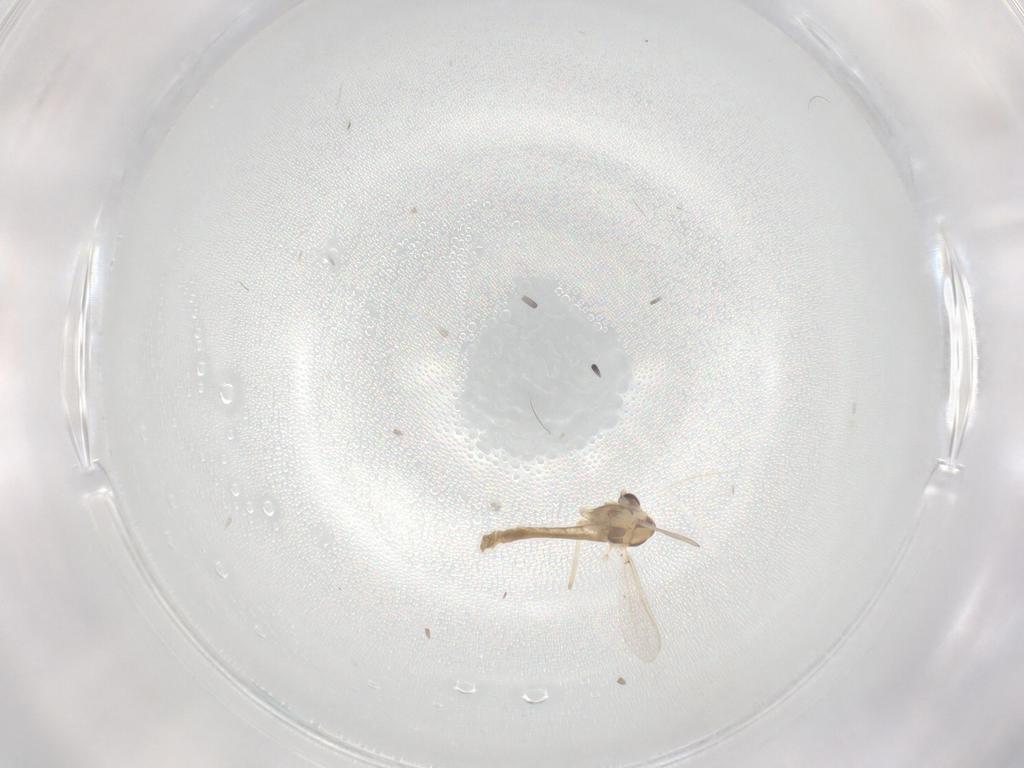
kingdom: Animalia
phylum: Arthropoda
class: Insecta
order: Diptera
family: Chironomidae
